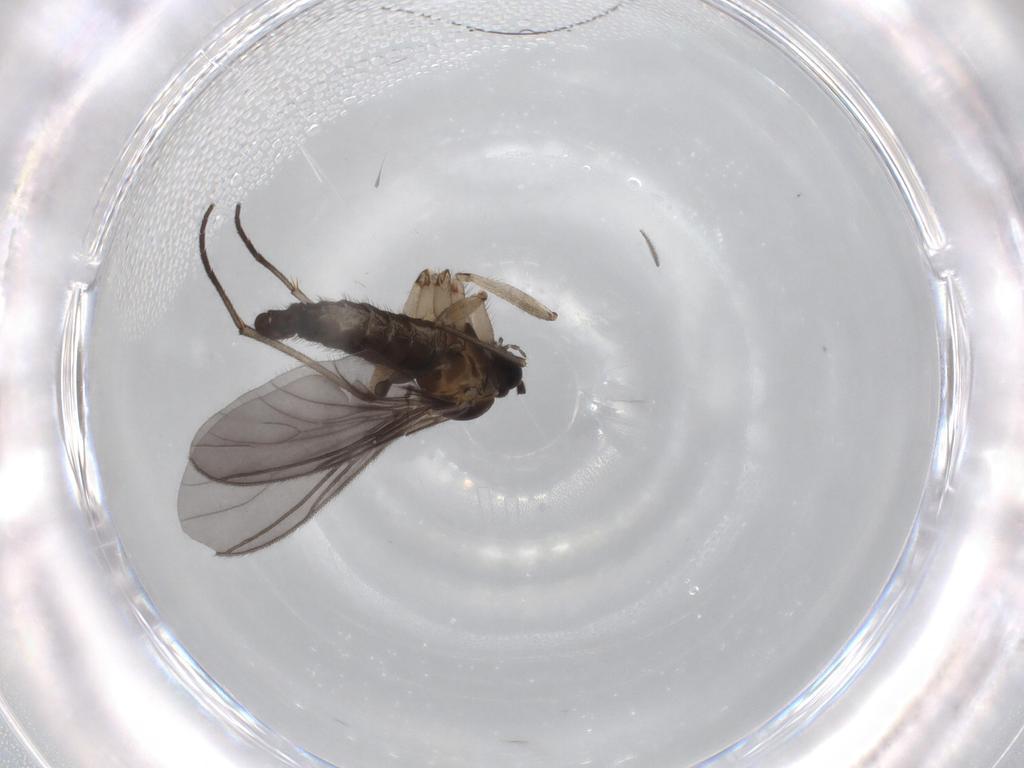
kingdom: Animalia
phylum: Arthropoda
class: Insecta
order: Diptera
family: Sciaridae
